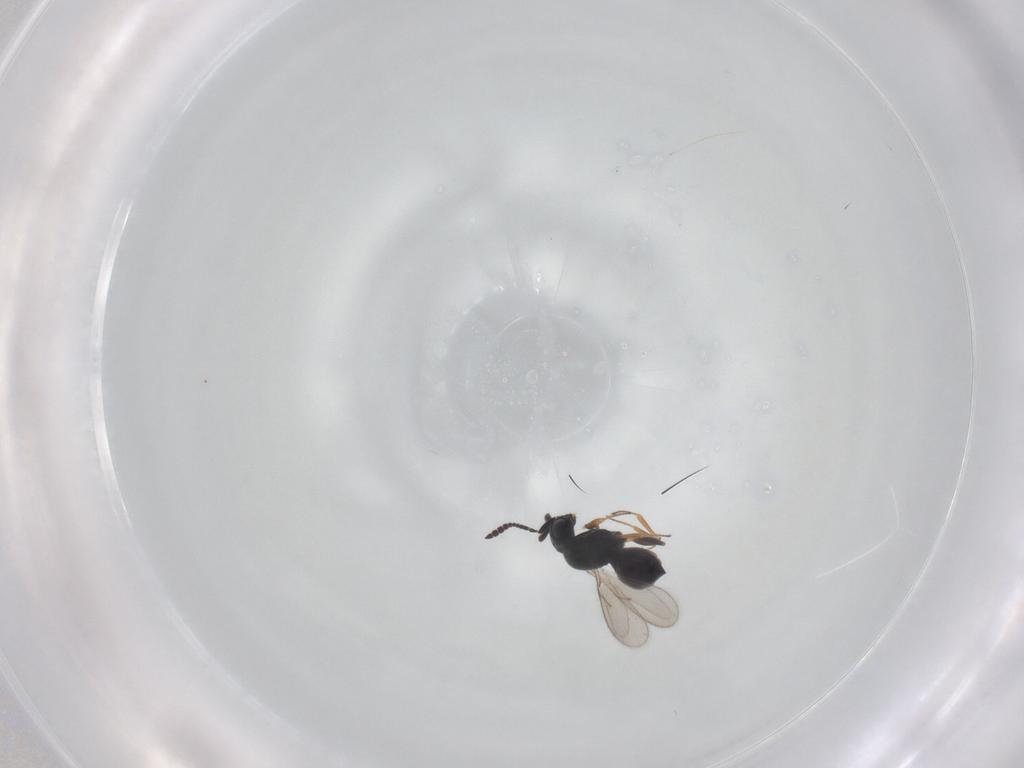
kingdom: Animalia
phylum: Arthropoda
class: Insecta
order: Hymenoptera
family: Scelionidae
